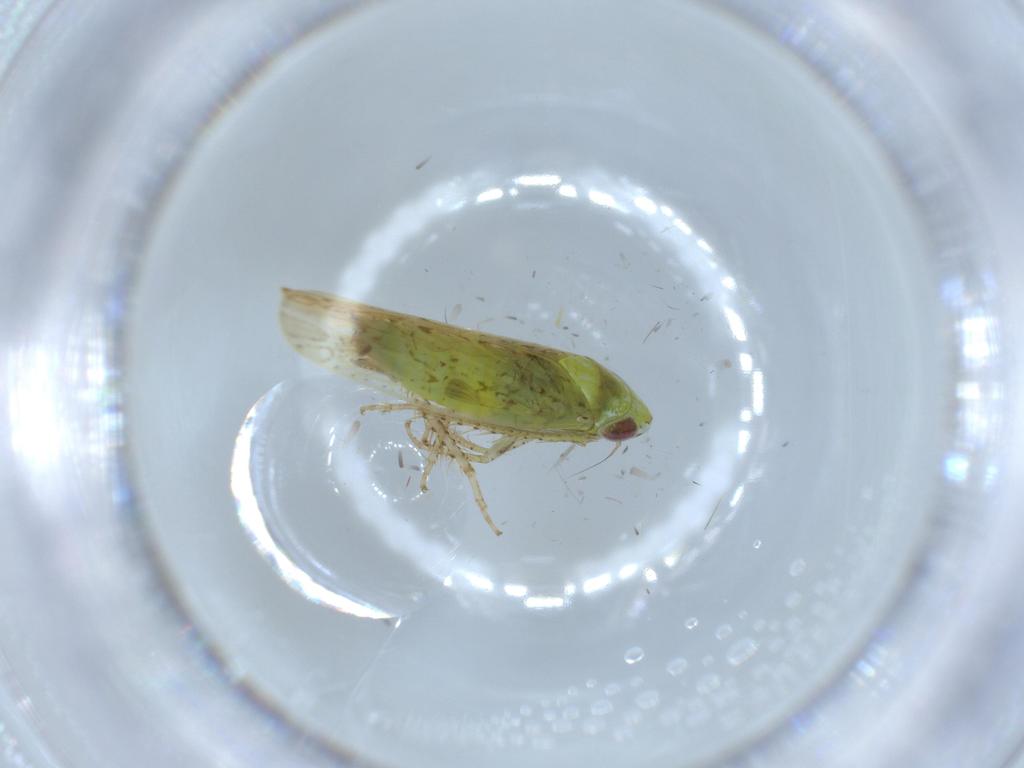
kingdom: Animalia
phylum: Arthropoda
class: Insecta
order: Hemiptera
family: Cicadellidae
